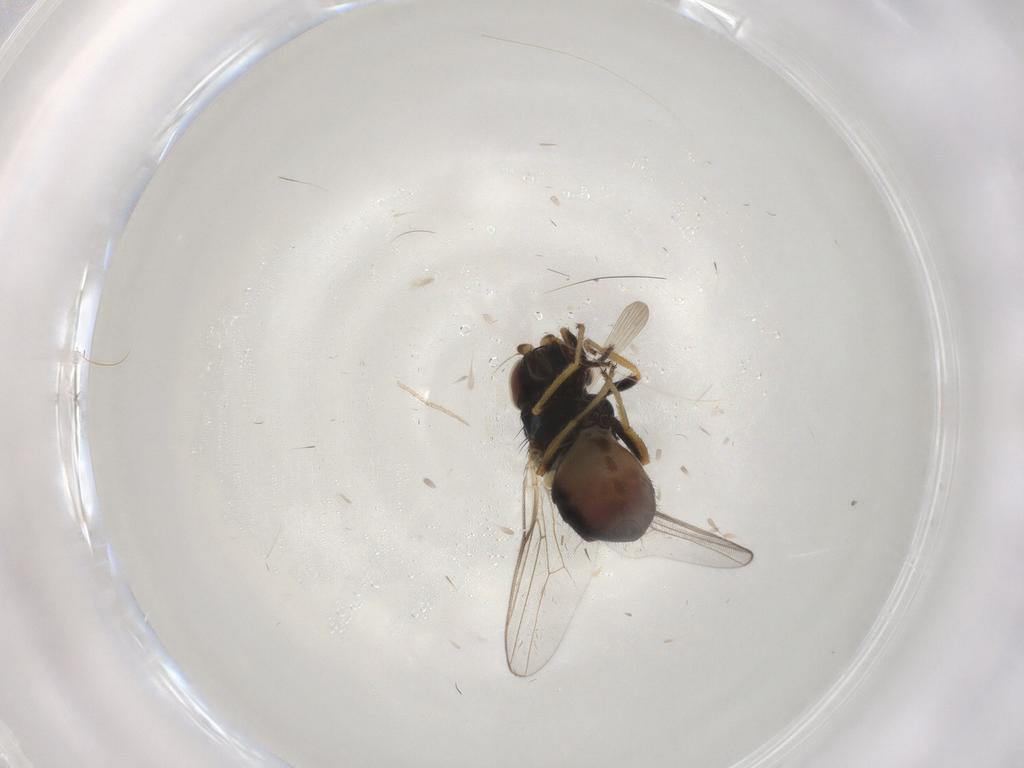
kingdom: Animalia
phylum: Arthropoda
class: Insecta
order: Diptera
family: Chloropidae
